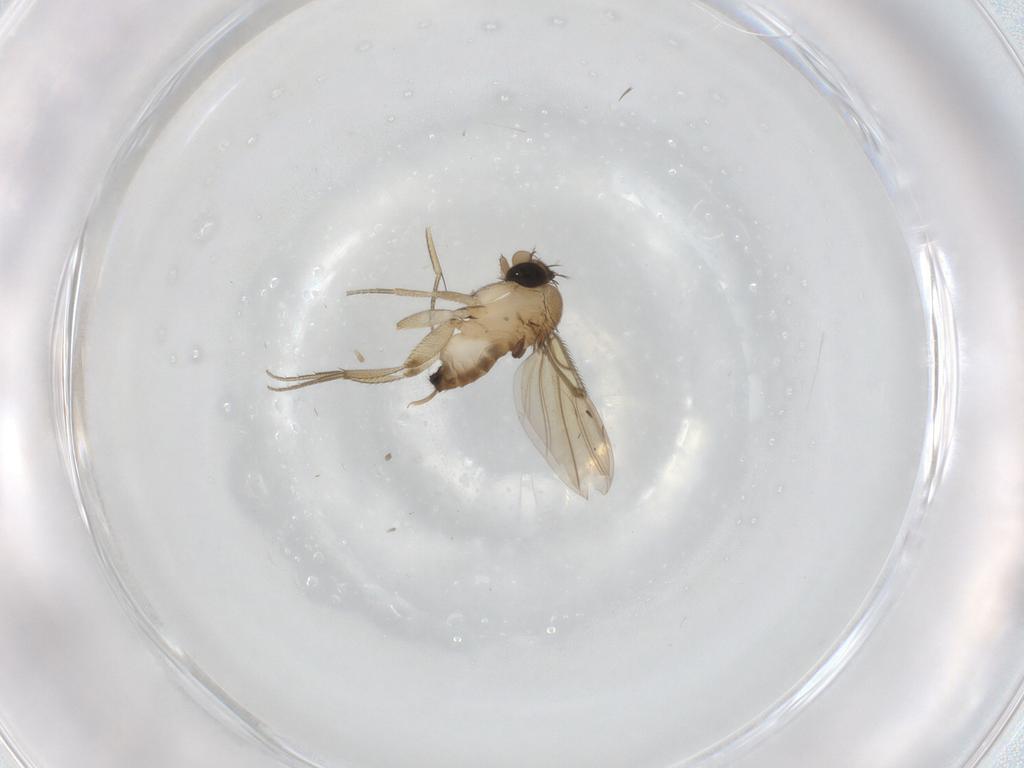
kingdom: Animalia
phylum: Arthropoda
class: Insecta
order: Diptera
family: Phoridae
